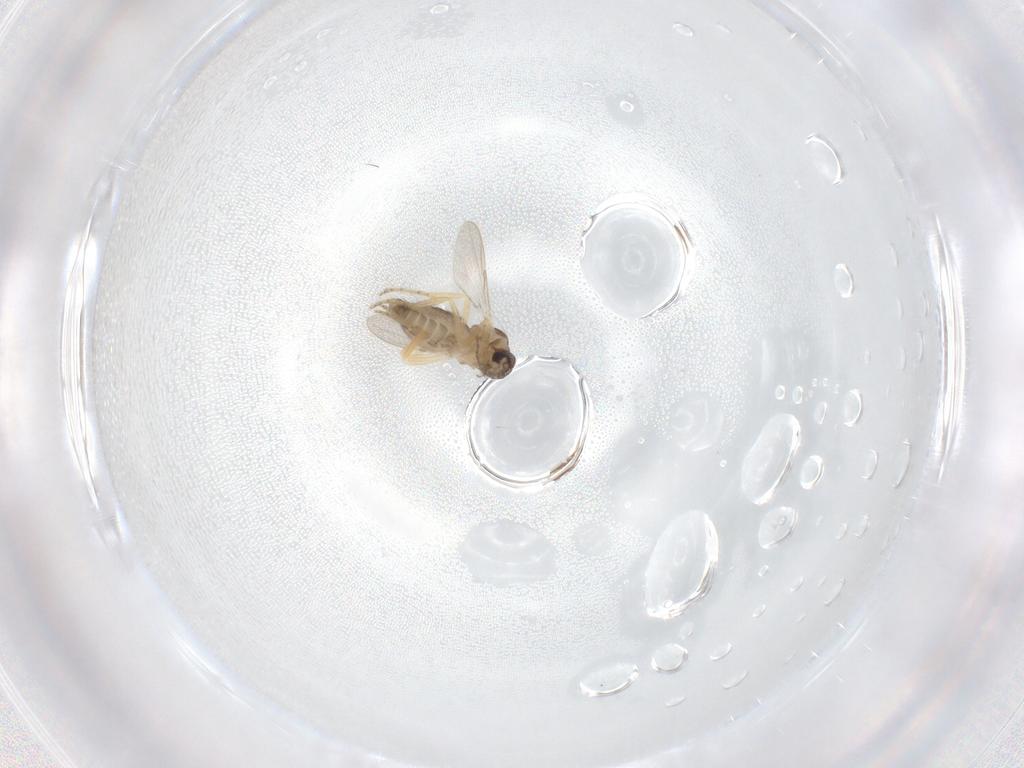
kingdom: Animalia
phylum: Arthropoda
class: Insecta
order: Diptera
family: Ceratopogonidae
